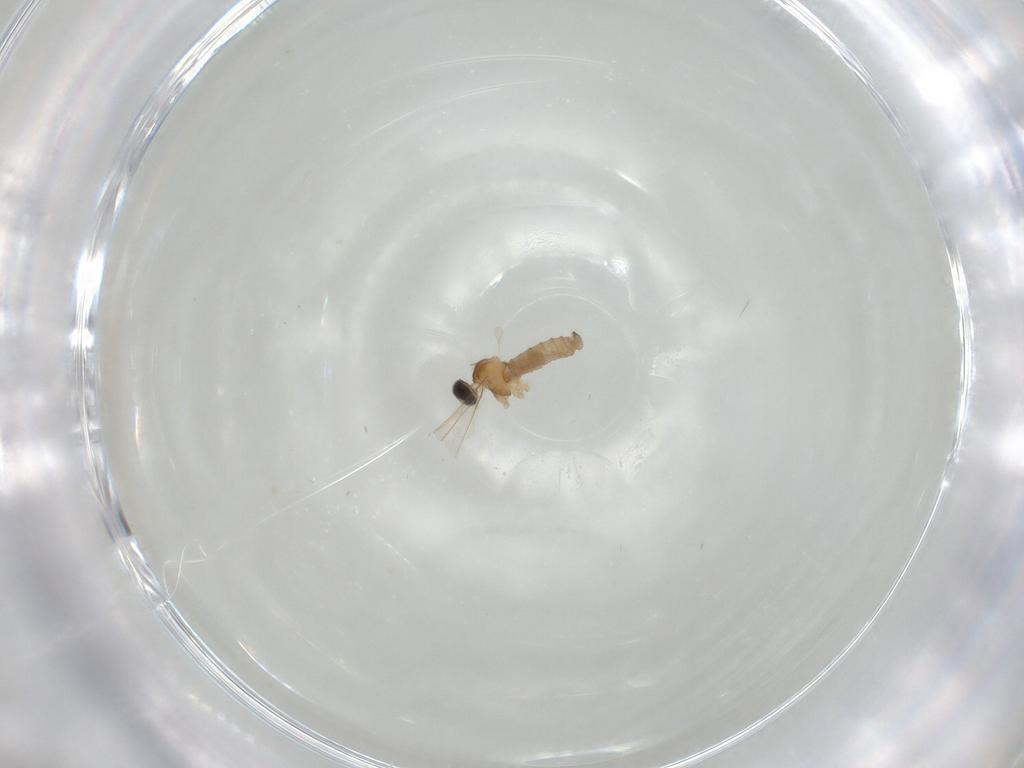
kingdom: Animalia
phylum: Arthropoda
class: Insecta
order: Diptera
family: Cecidomyiidae
